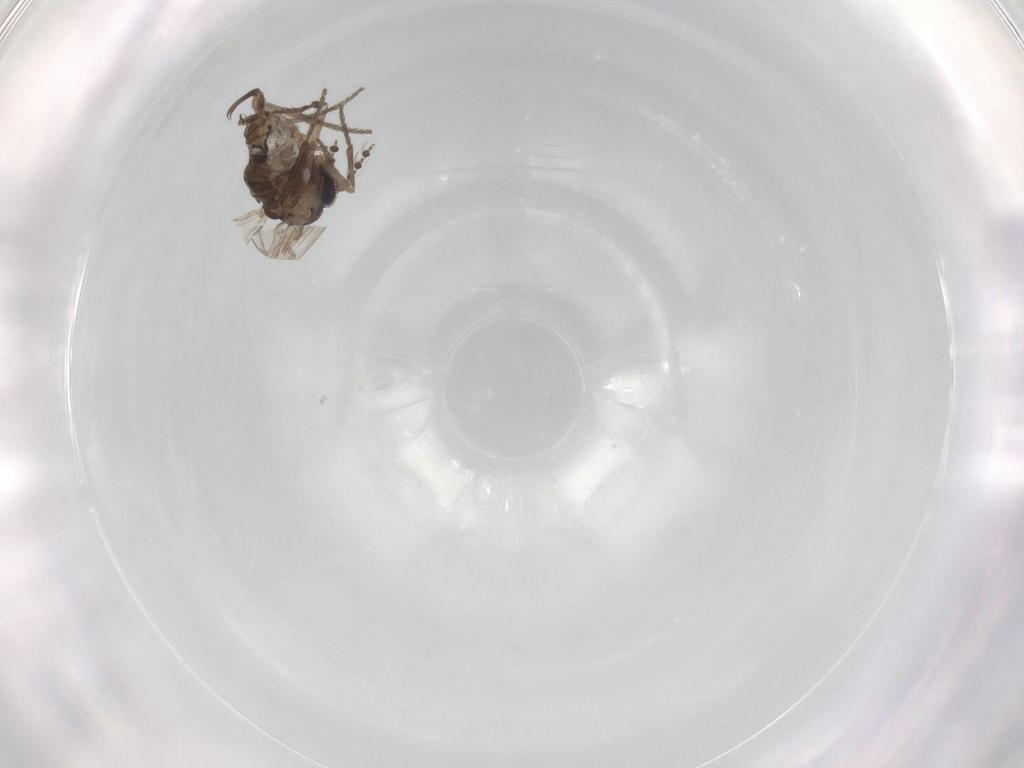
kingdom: Animalia
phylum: Arthropoda
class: Insecta
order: Diptera
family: Psychodidae
